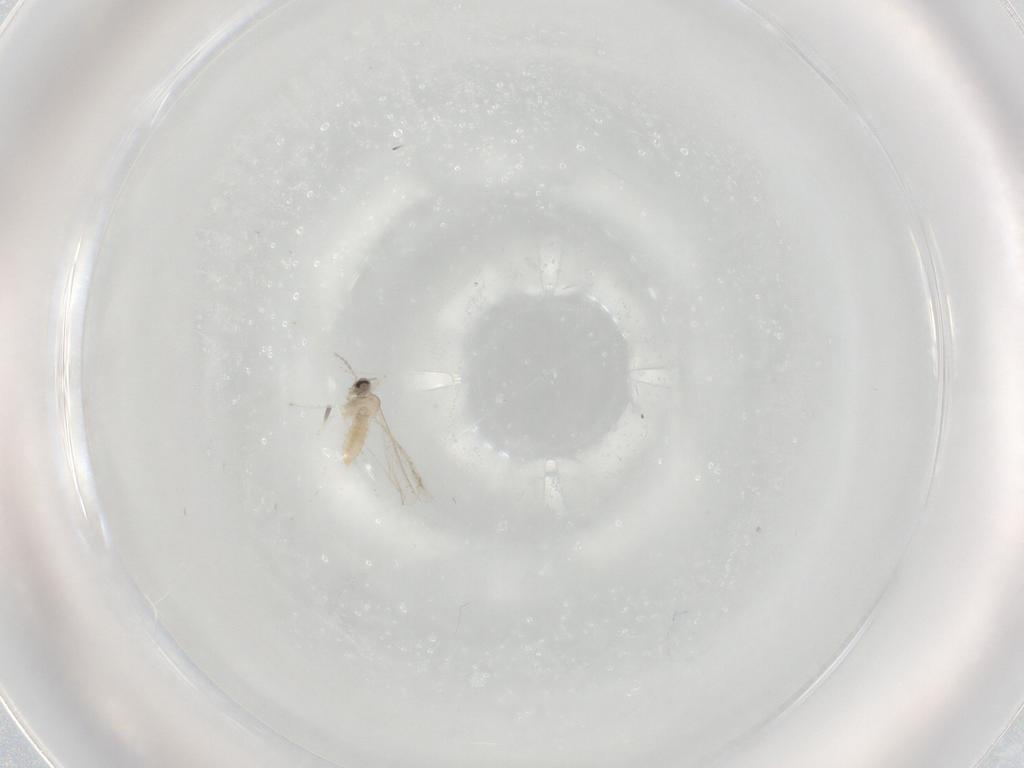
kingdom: Animalia
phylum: Arthropoda
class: Insecta
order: Diptera
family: Cecidomyiidae
